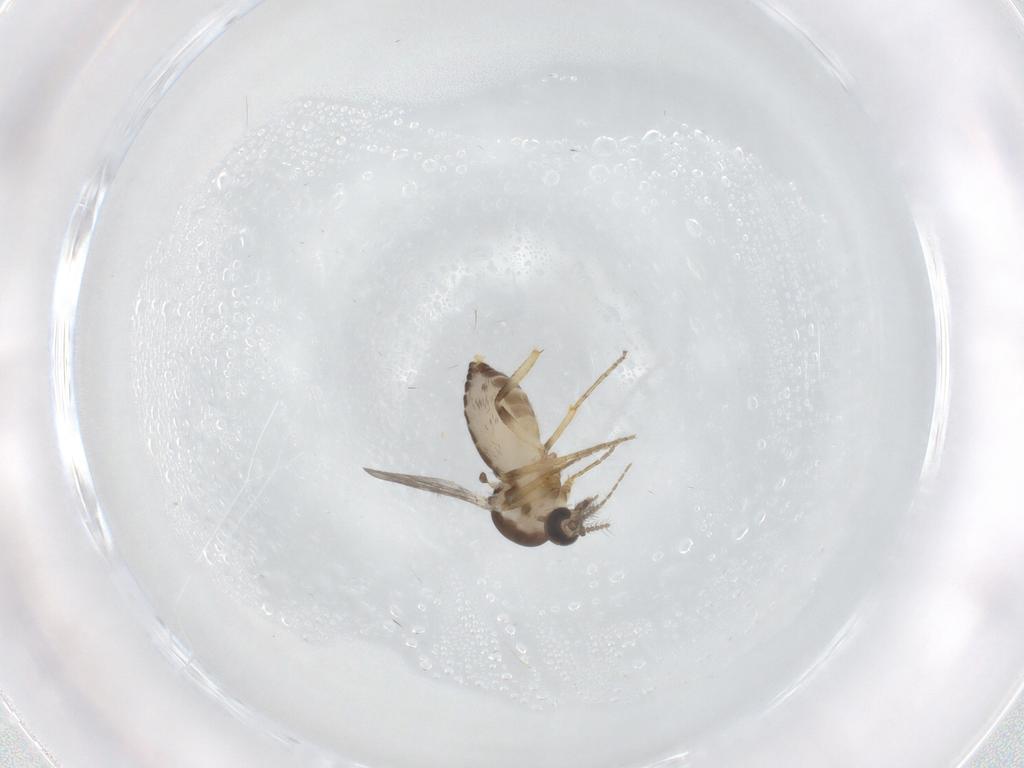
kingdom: Animalia
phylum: Arthropoda
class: Insecta
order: Diptera
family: Ceratopogonidae
